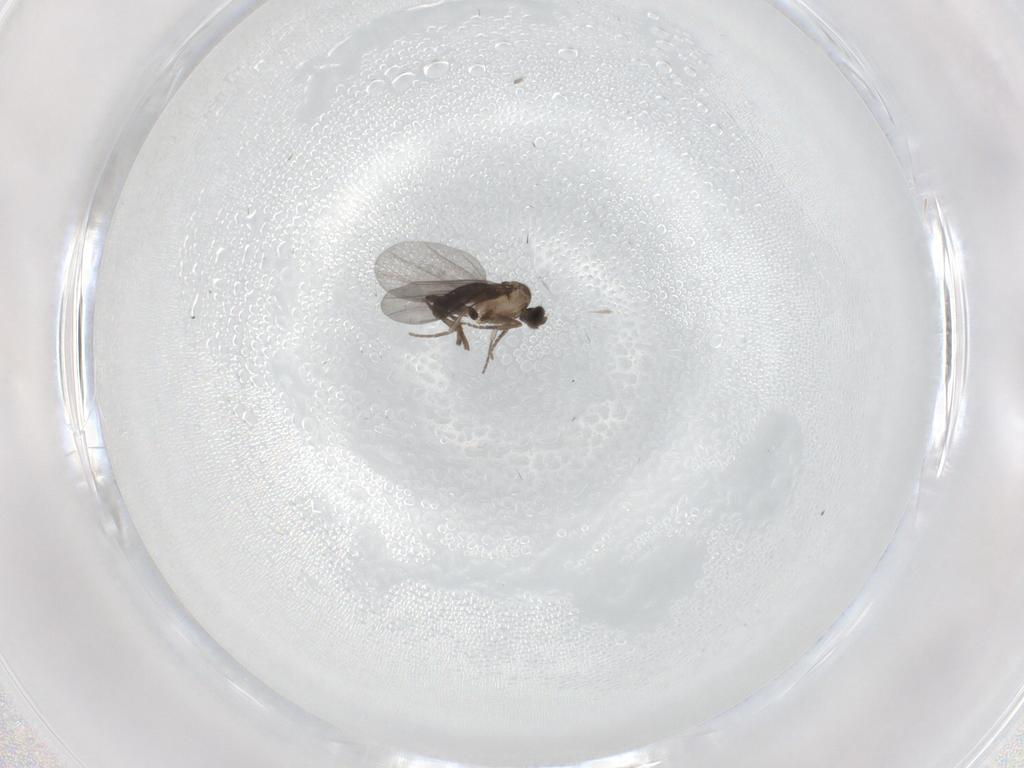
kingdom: Animalia
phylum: Arthropoda
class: Insecta
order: Diptera
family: Phoridae
